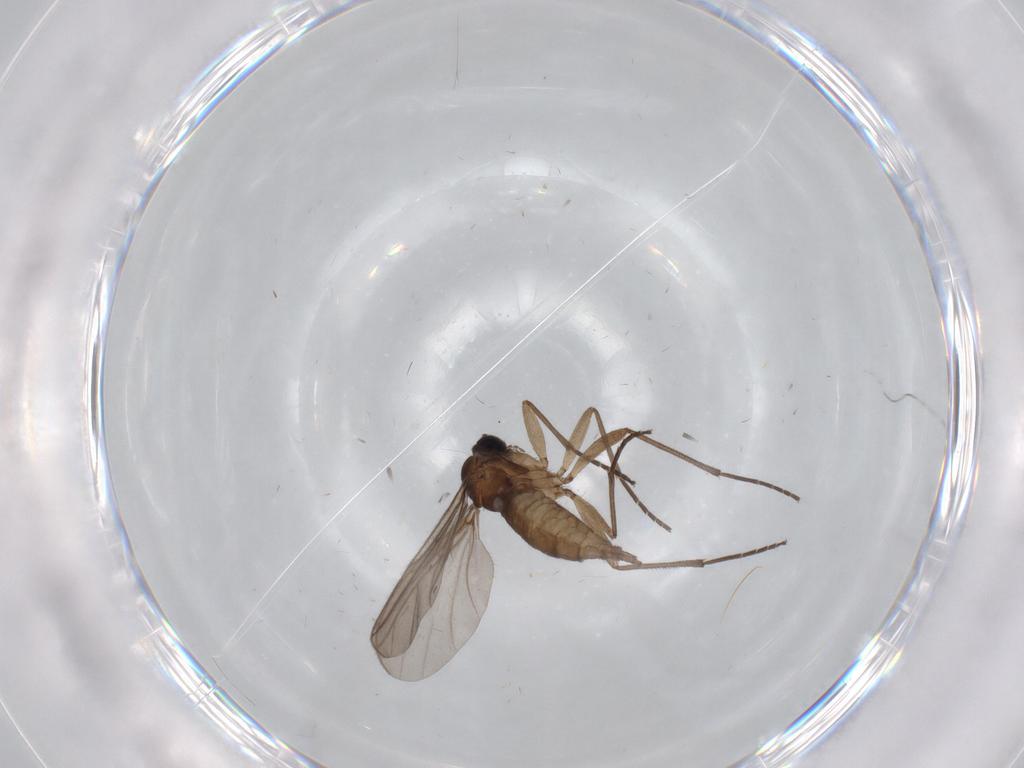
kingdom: Animalia
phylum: Arthropoda
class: Insecta
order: Diptera
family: Sciaridae
